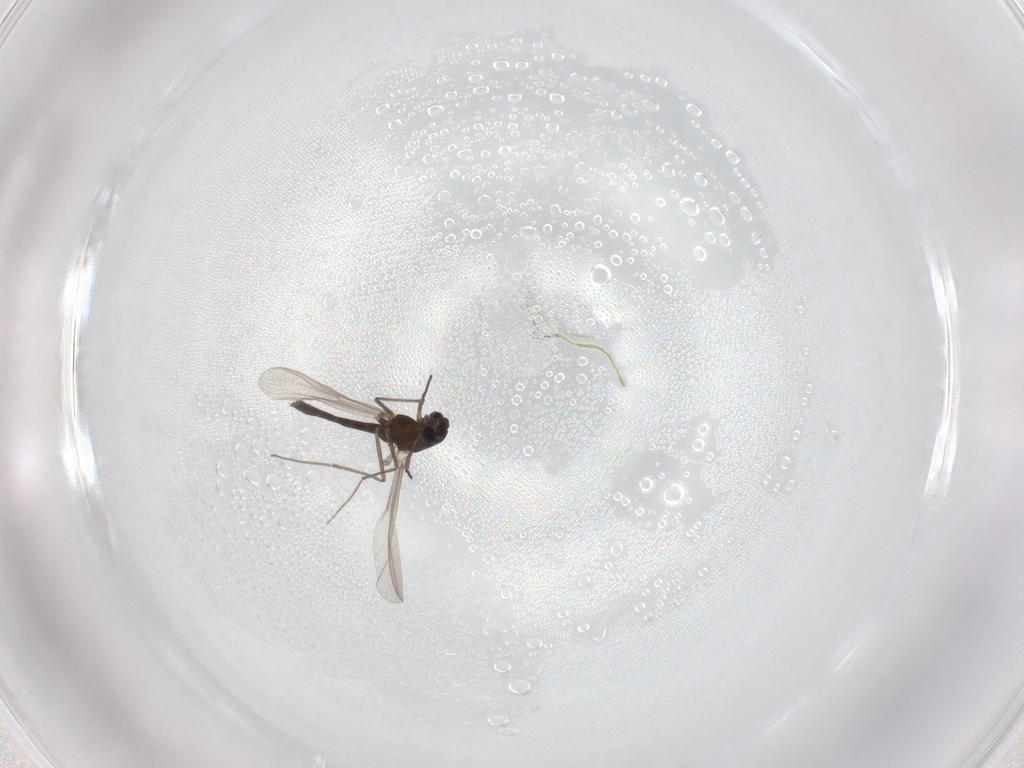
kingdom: Animalia
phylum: Arthropoda
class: Insecta
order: Diptera
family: Chironomidae
